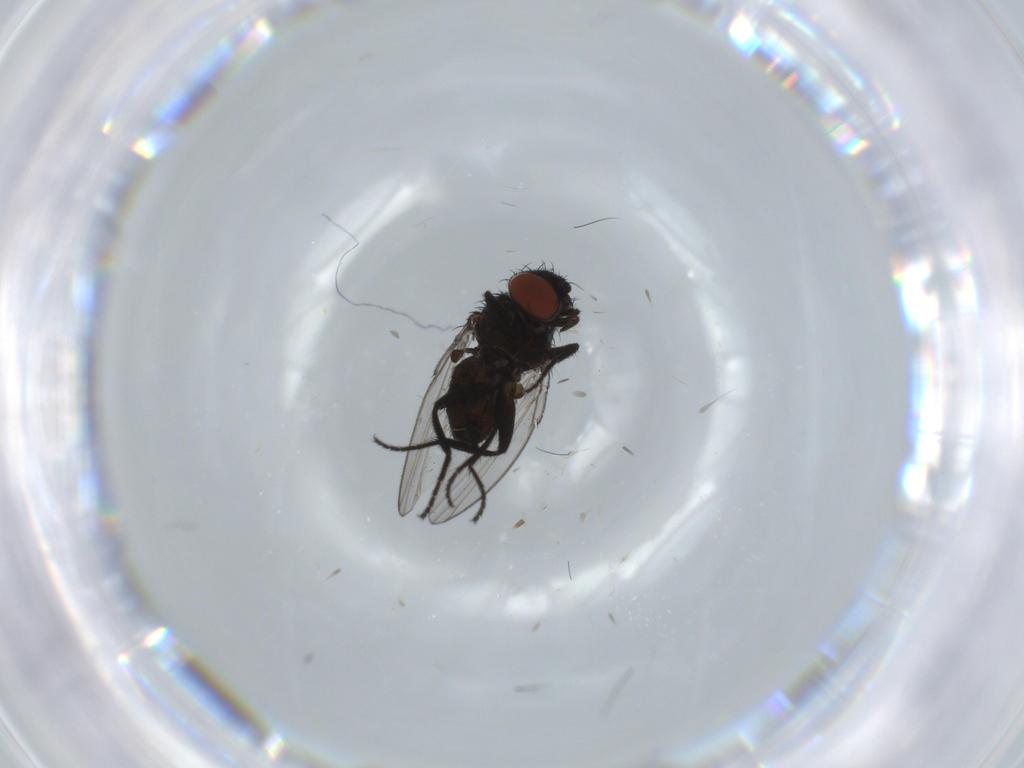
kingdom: Animalia
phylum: Arthropoda
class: Insecta
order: Diptera
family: Milichiidae
